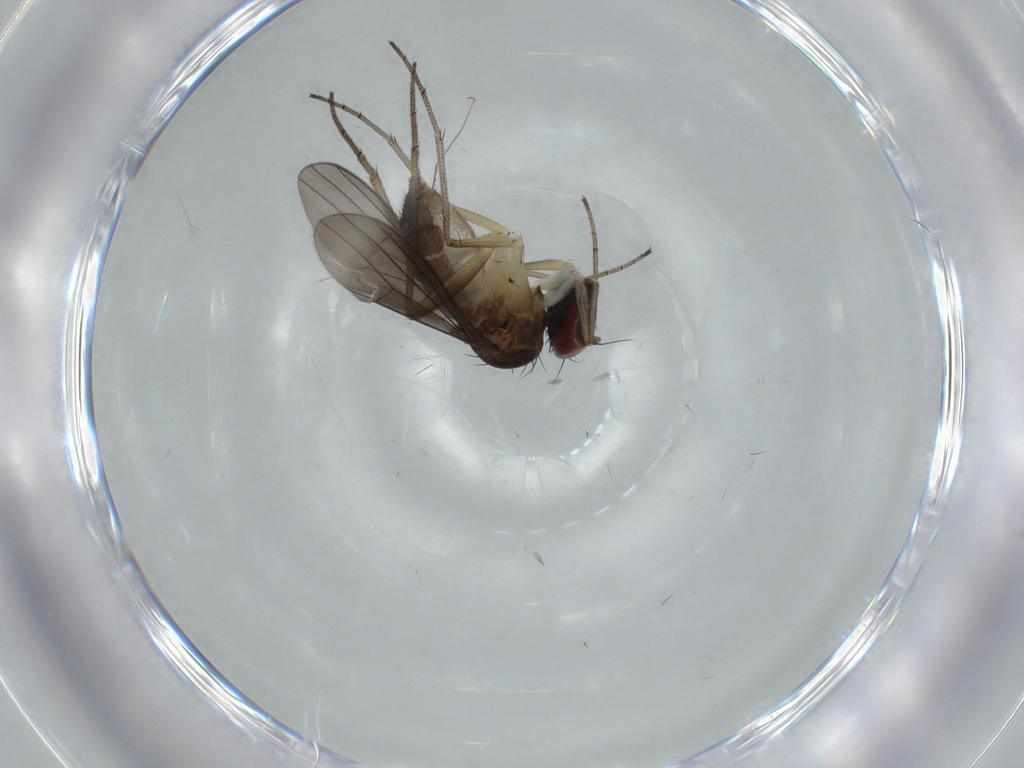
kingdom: Animalia
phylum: Arthropoda
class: Insecta
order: Diptera
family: Dolichopodidae
